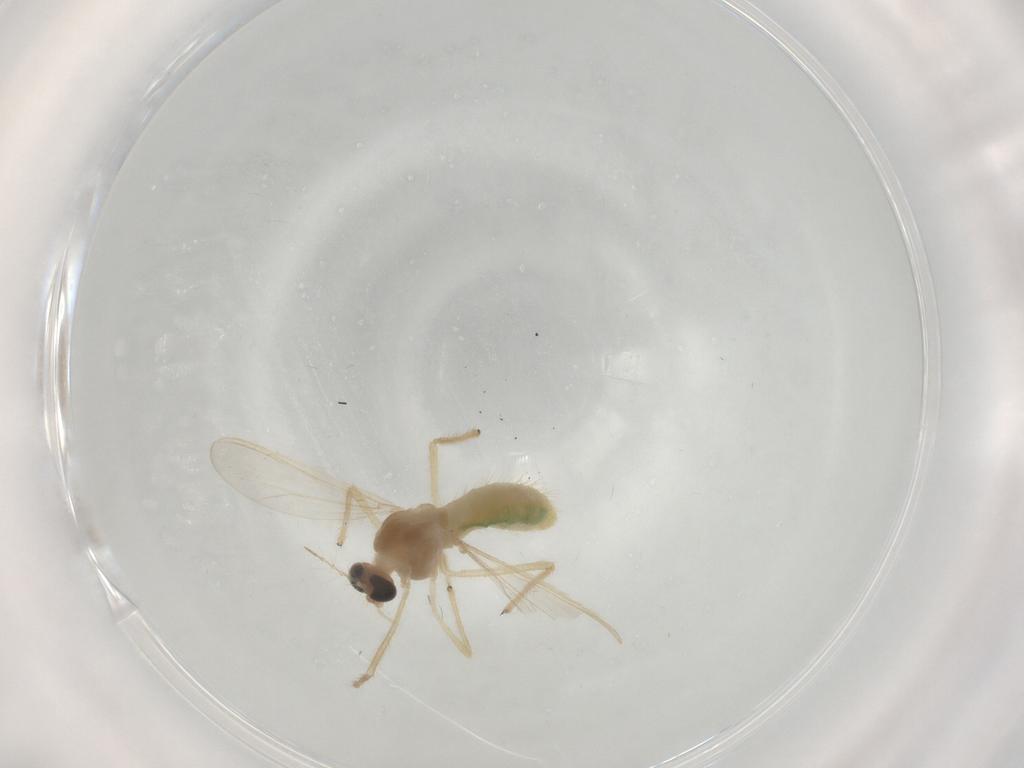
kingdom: Animalia
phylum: Arthropoda
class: Insecta
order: Diptera
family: Chironomidae
